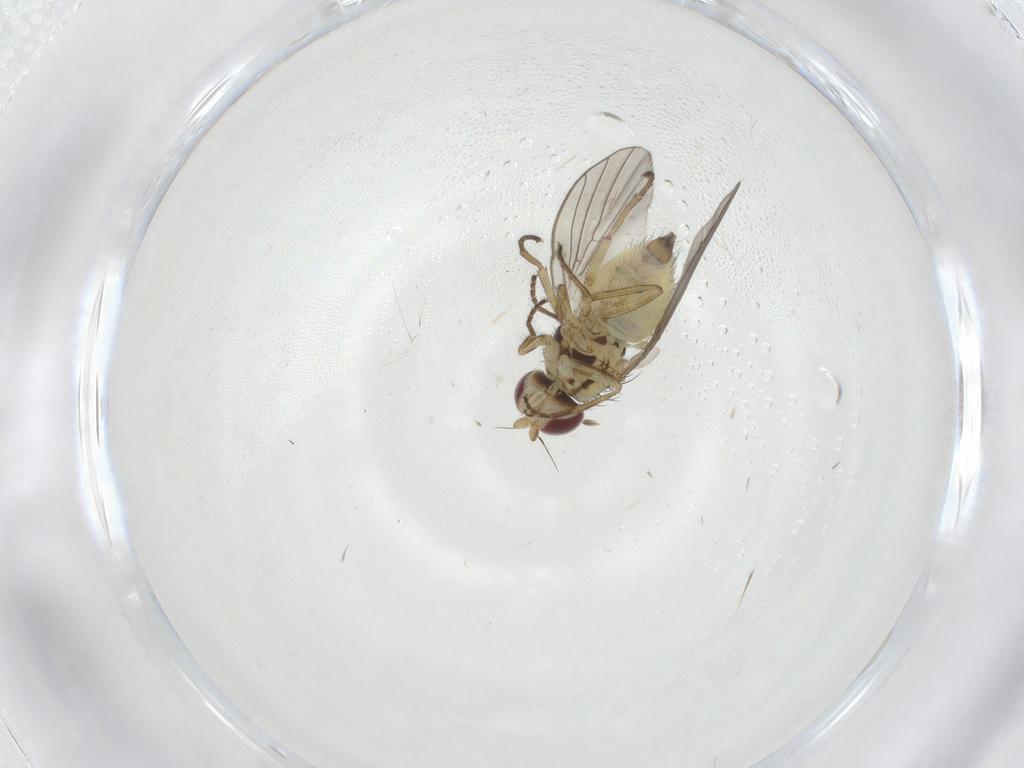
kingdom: Animalia
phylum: Arthropoda
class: Insecta
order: Diptera
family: Agromyzidae
